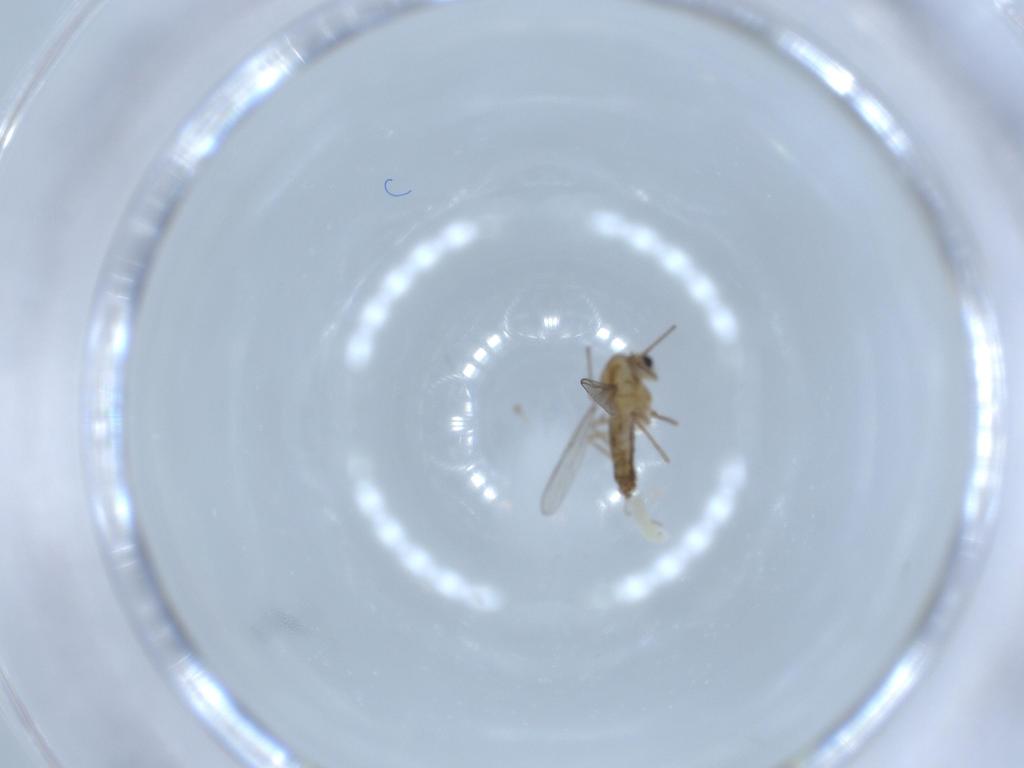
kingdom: Animalia
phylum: Arthropoda
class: Insecta
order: Diptera
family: Chironomidae
